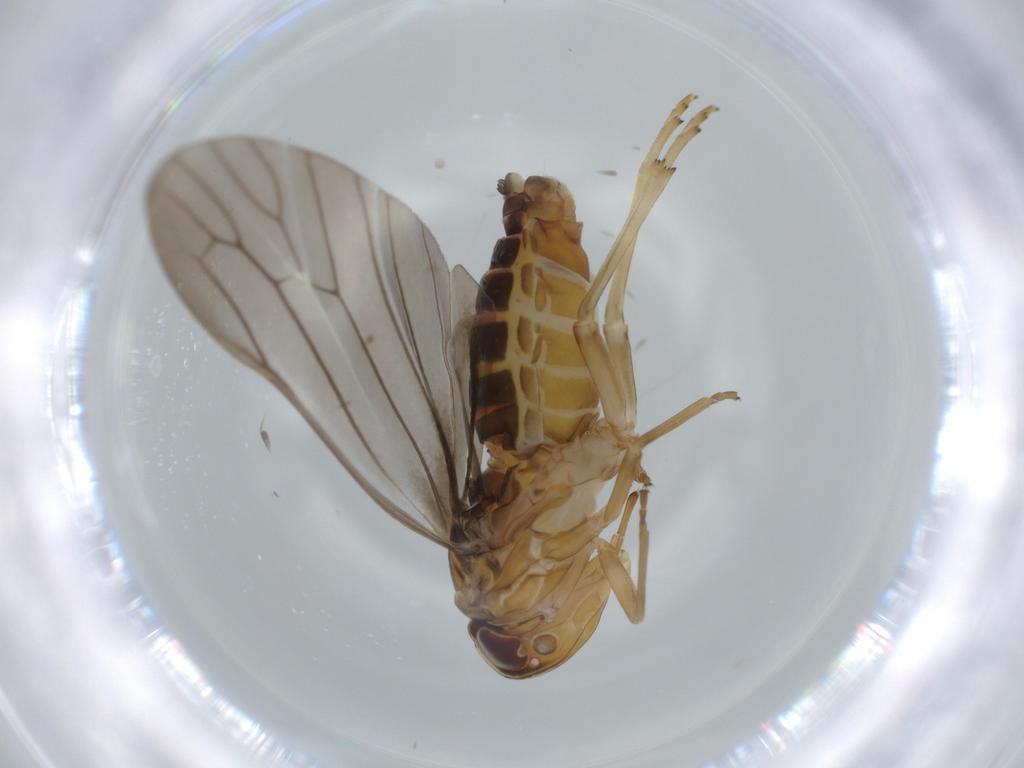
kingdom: Animalia
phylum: Arthropoda
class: Insecta
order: Hemiptera
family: Achilidae
